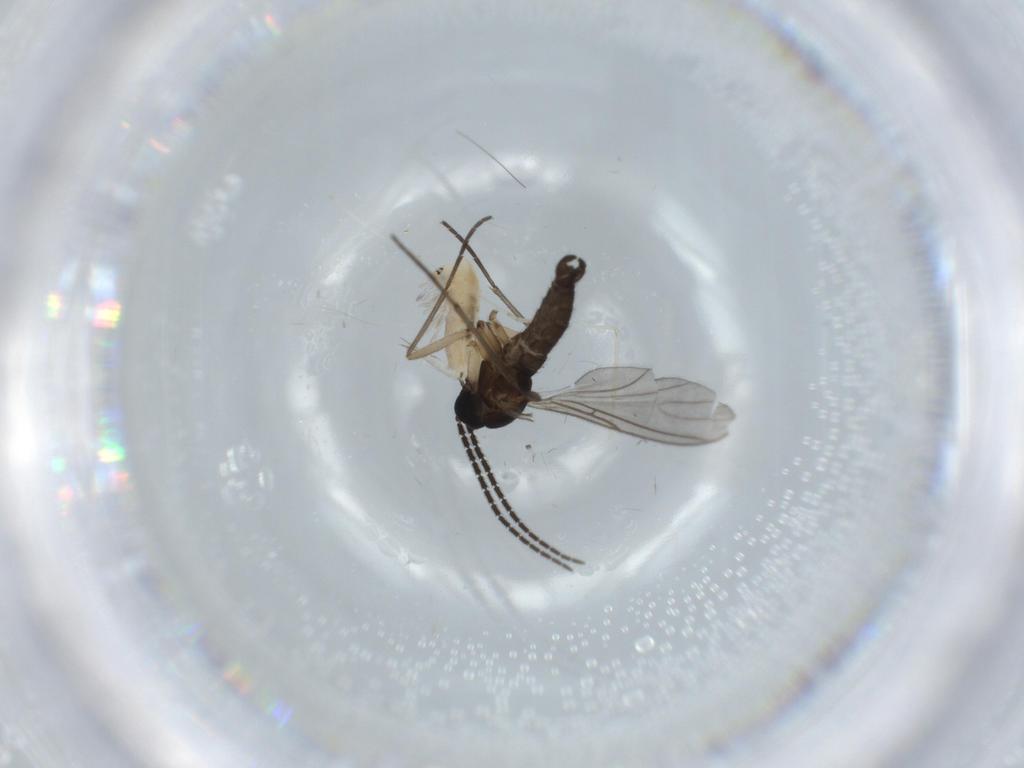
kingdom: Animalia
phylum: Arthropoda
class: Insecta
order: Diptera
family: Sciaridae
